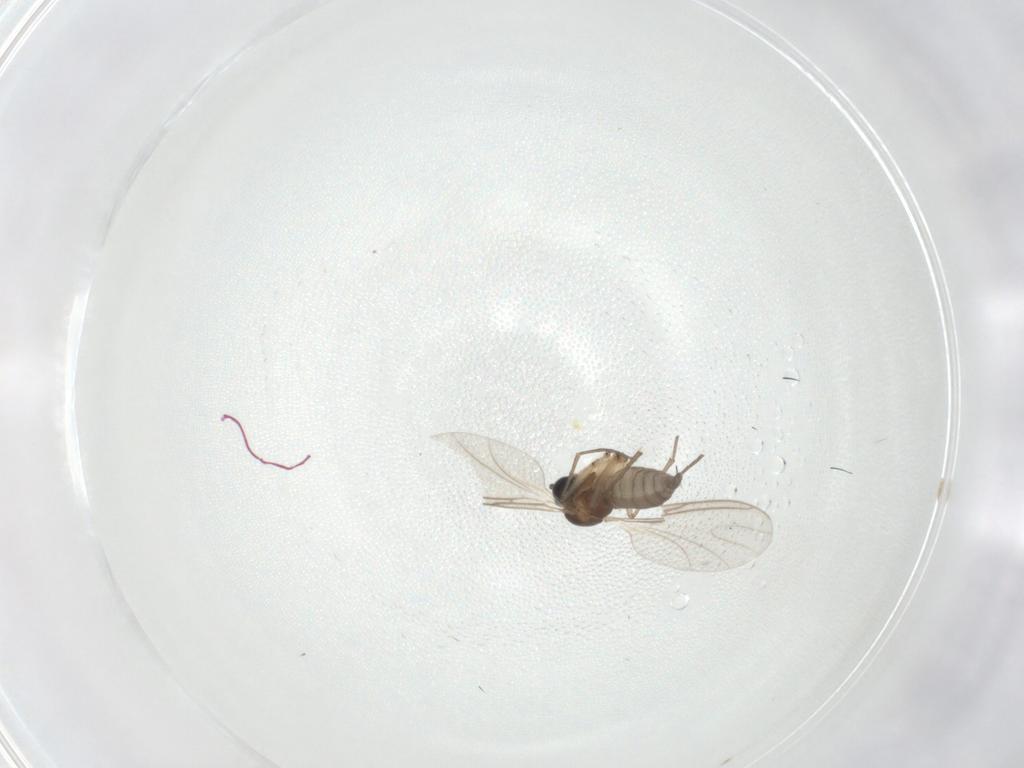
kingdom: Animalia
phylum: Arthropoda
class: Insecta
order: Diptera
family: Sciaridae
